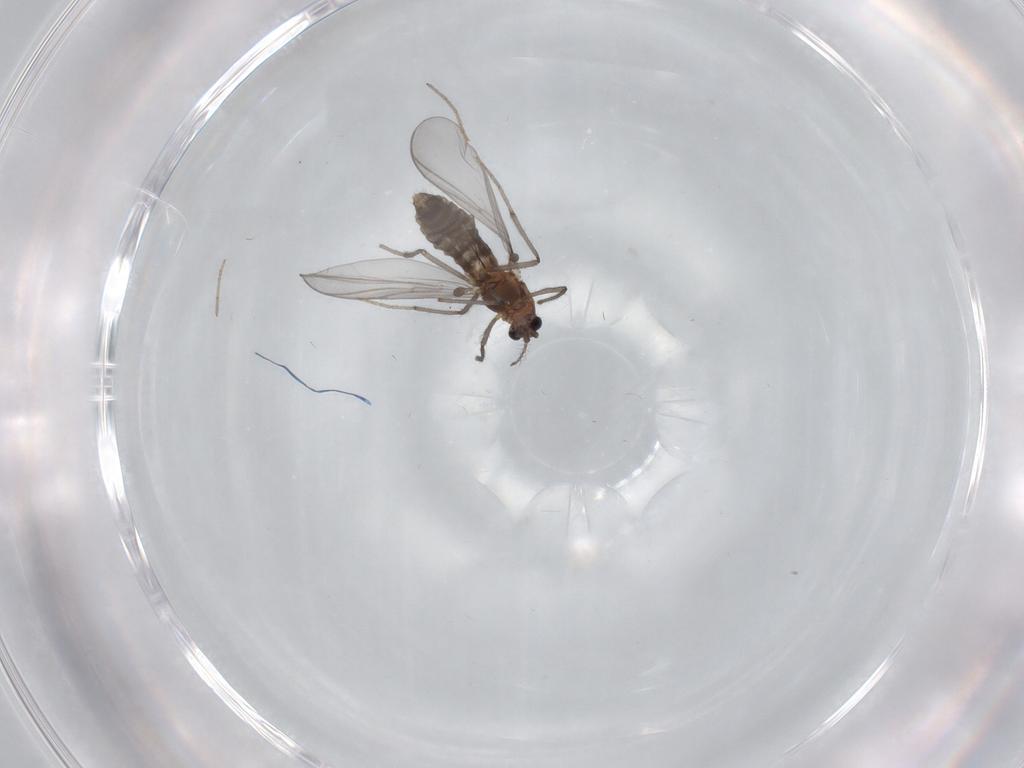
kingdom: Animalia
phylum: Arthropoda
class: Insecta
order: Diptera
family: Chironomidae
